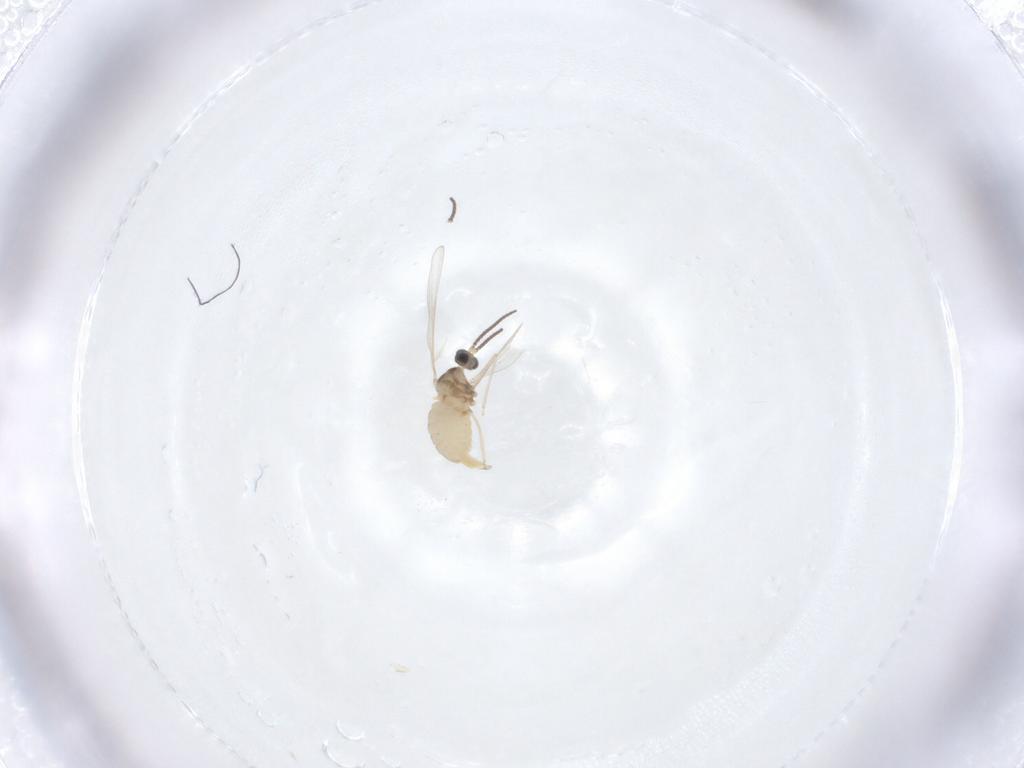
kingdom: Animalia
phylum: Arthropoda
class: Insecta
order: Diptera
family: Cecidomyiidae
